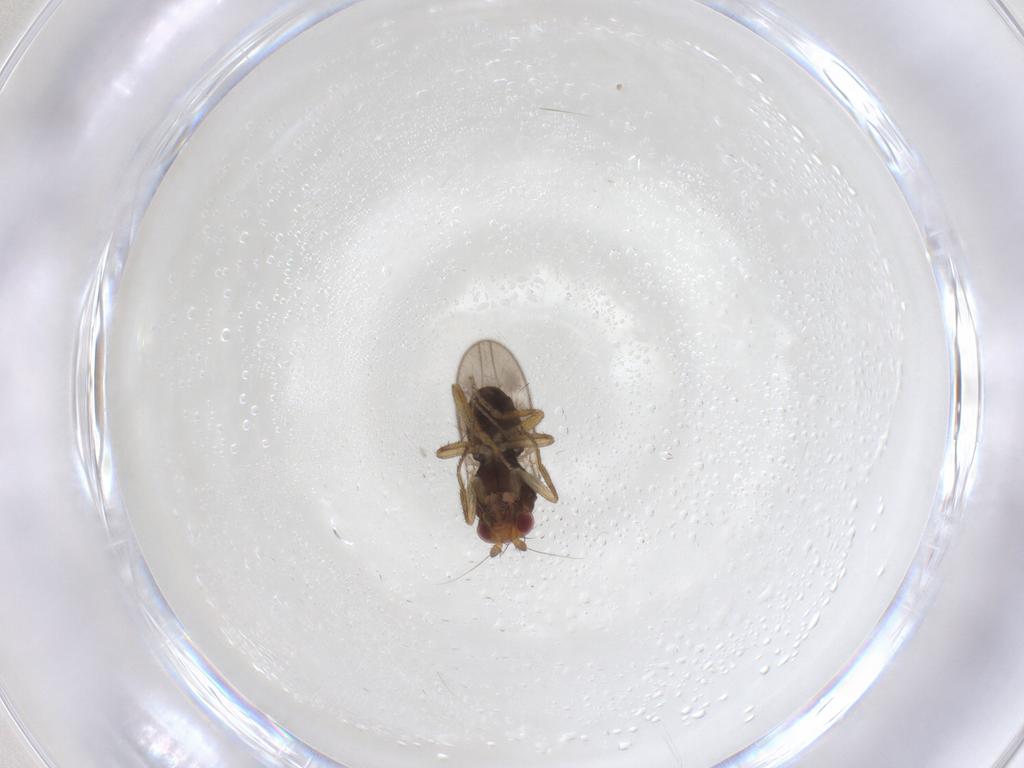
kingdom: Animalia
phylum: Arthropoda
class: Insecta
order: Diptera
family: Sphaeroceridae
